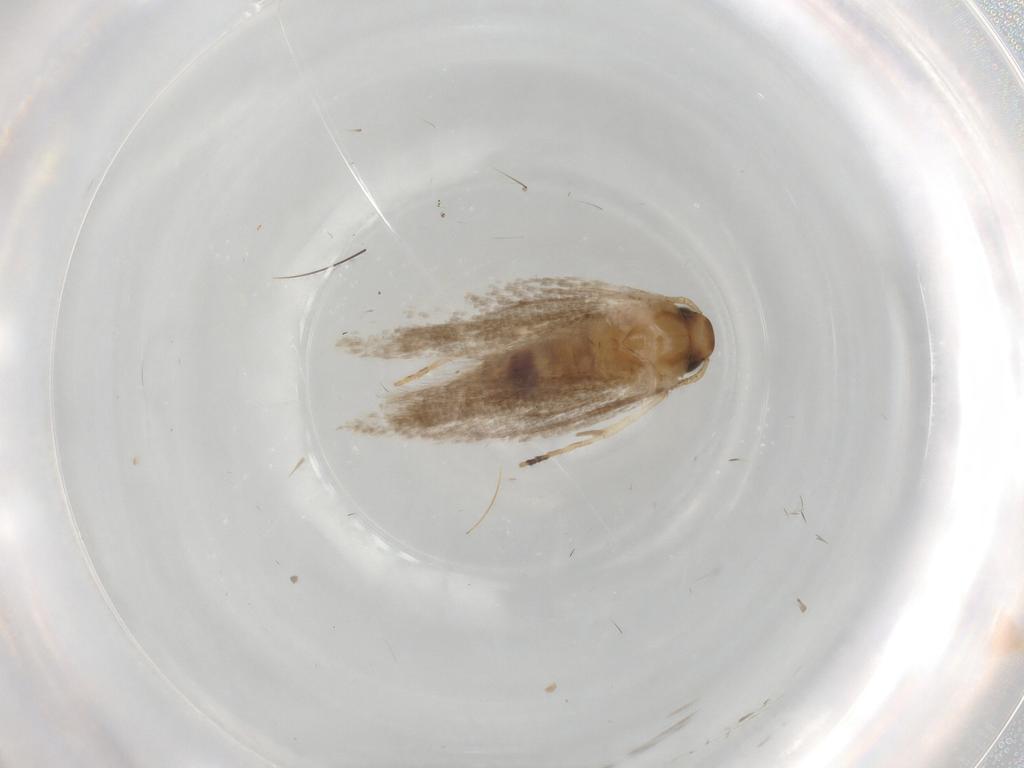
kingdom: Animalia
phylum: Arthropoda
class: Insecta
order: Lepidoptera
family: Gelechiidae
